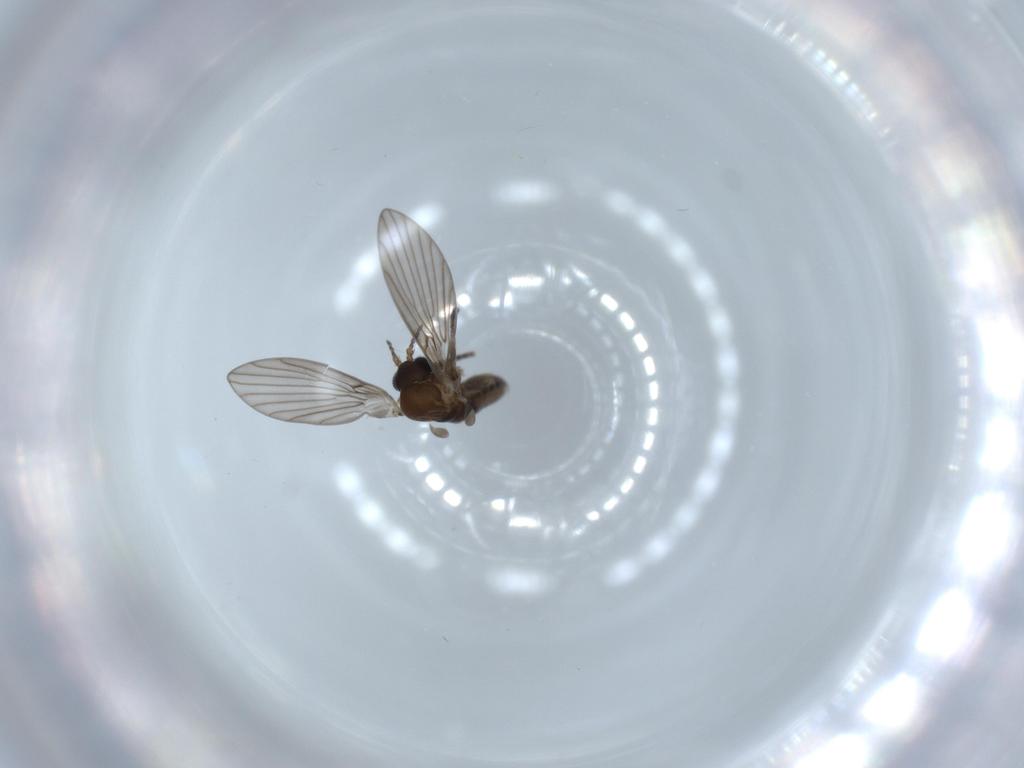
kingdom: Animalia
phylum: Arthropoda
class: Insecta
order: Diptera
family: Psychodidae
